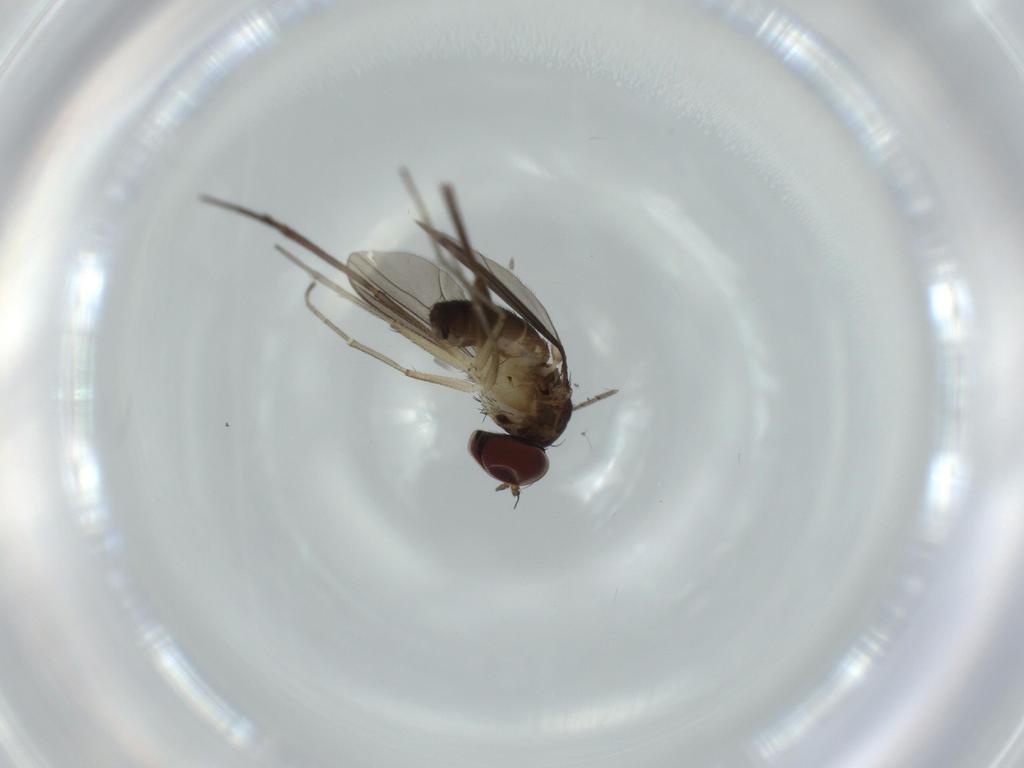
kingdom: Animalia
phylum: Arthropoda
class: Insecta
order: Diptera
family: Dolichopodidae
